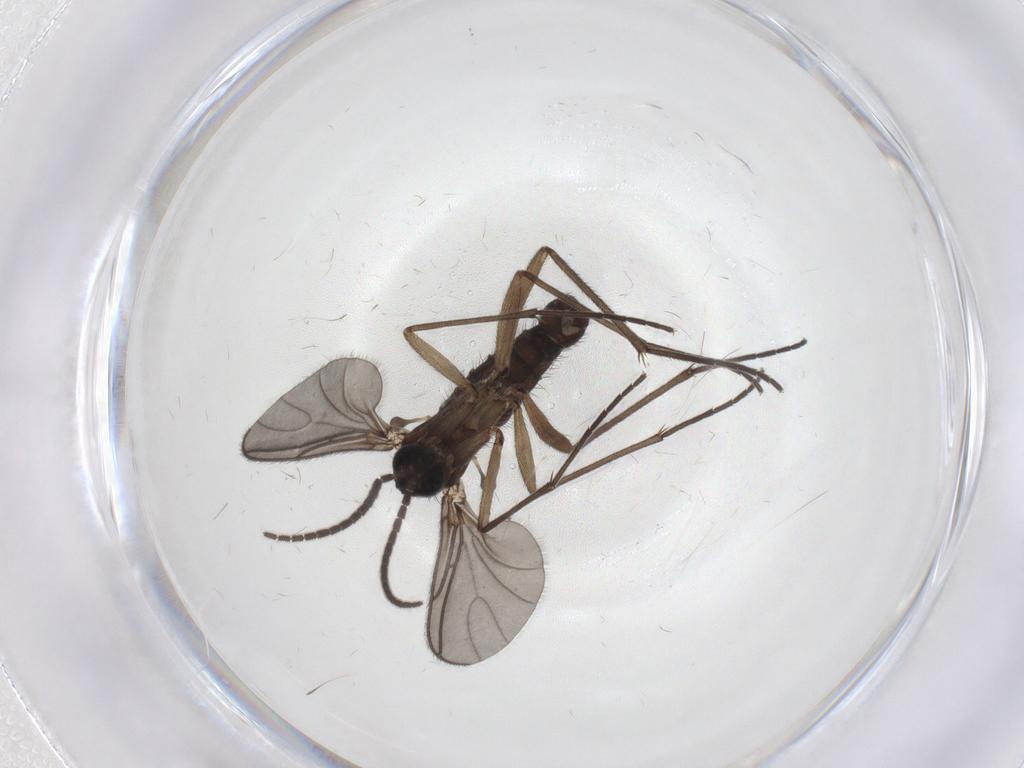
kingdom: Animalia
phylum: Arthropoda
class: Insecta
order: Diptera
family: Sciaridae
